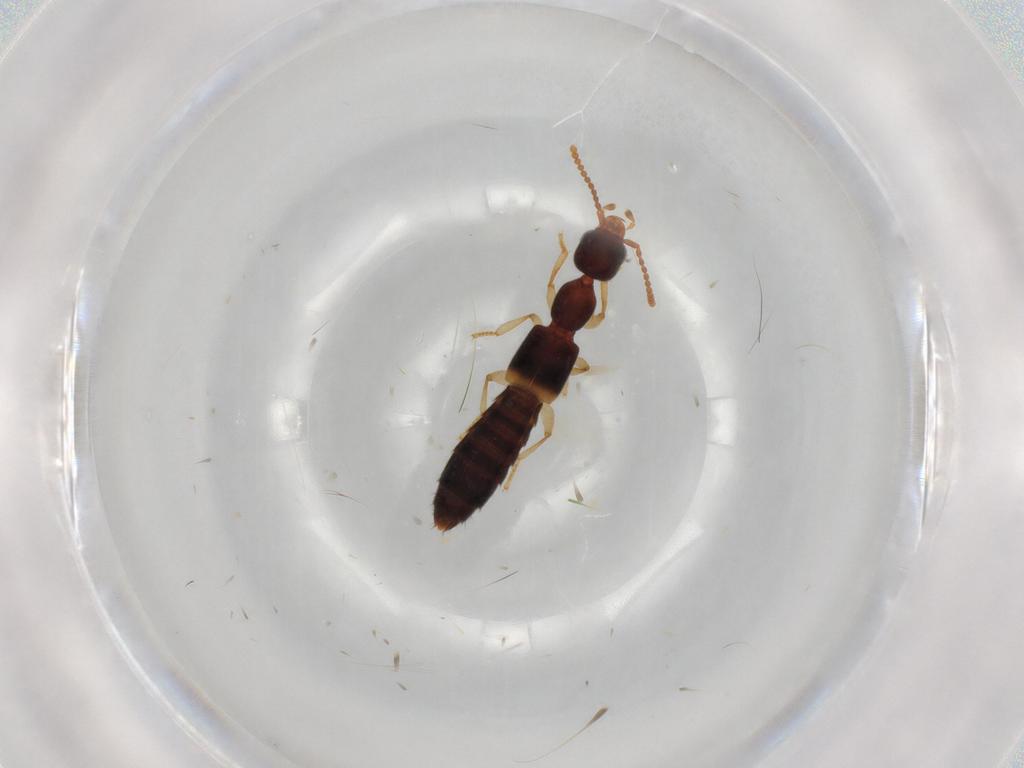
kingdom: Animalia
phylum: Arthropoda
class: Insecta
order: Coleoptera
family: Staphylinidae
